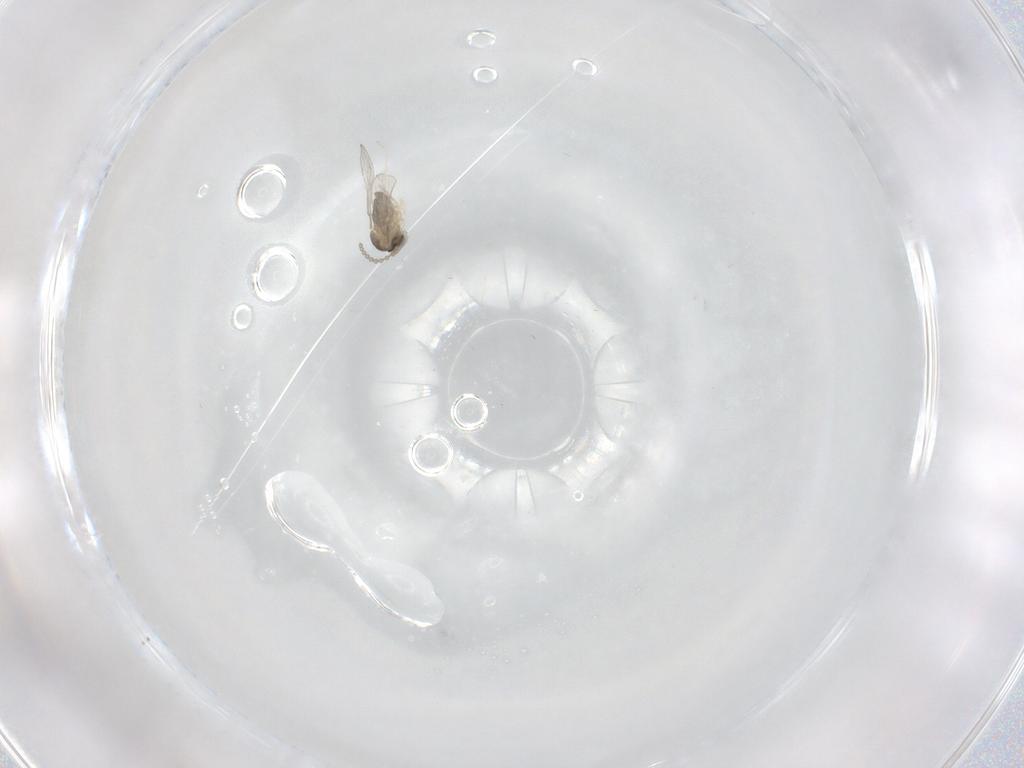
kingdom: Animalia
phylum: Arthropoda
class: Insecta
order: Diptera
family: Cecidomyiidae
